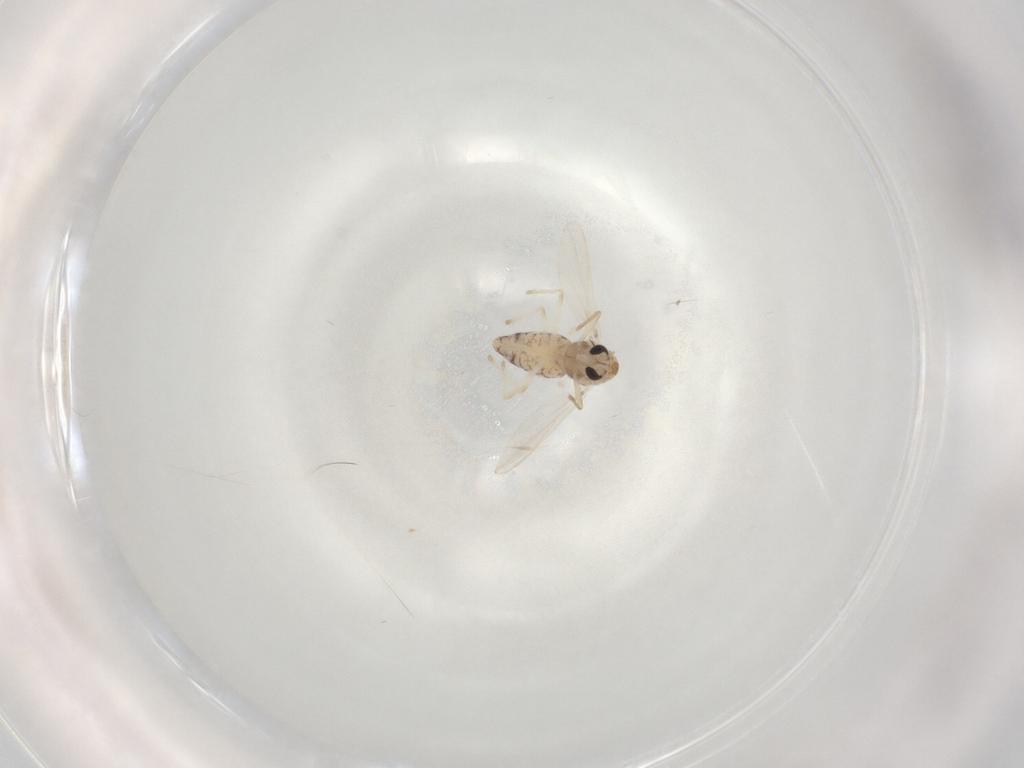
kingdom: Animalia
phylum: Arthropoda
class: Insecta
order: Diptera
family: Chironomidae
